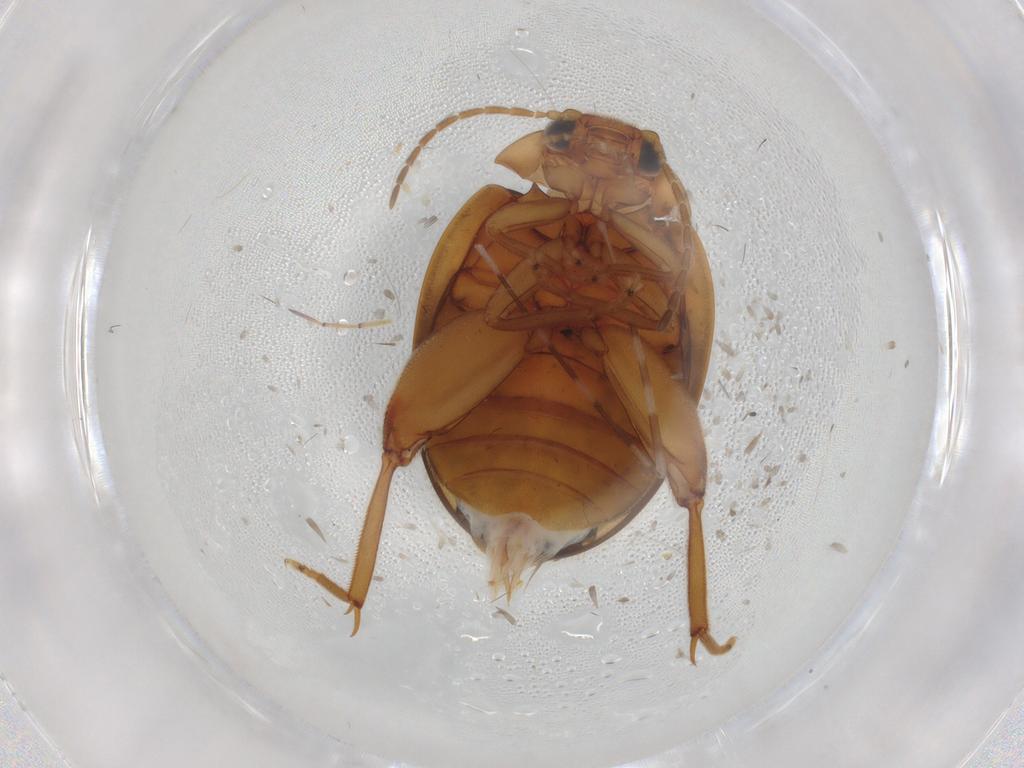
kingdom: Animalia
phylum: Arthropoda
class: Insecta
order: Coleoptera
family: Scirtidae
